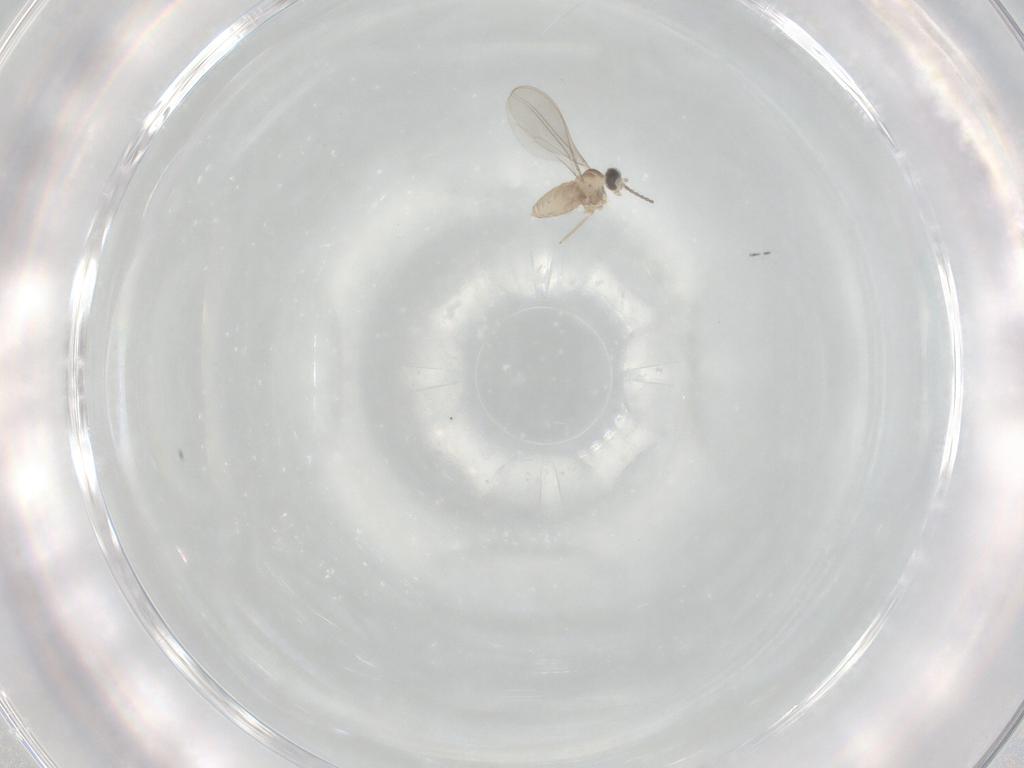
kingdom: Animalia
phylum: Arthropoda
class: Insecta
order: Diptera
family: Cecidomyiidae
